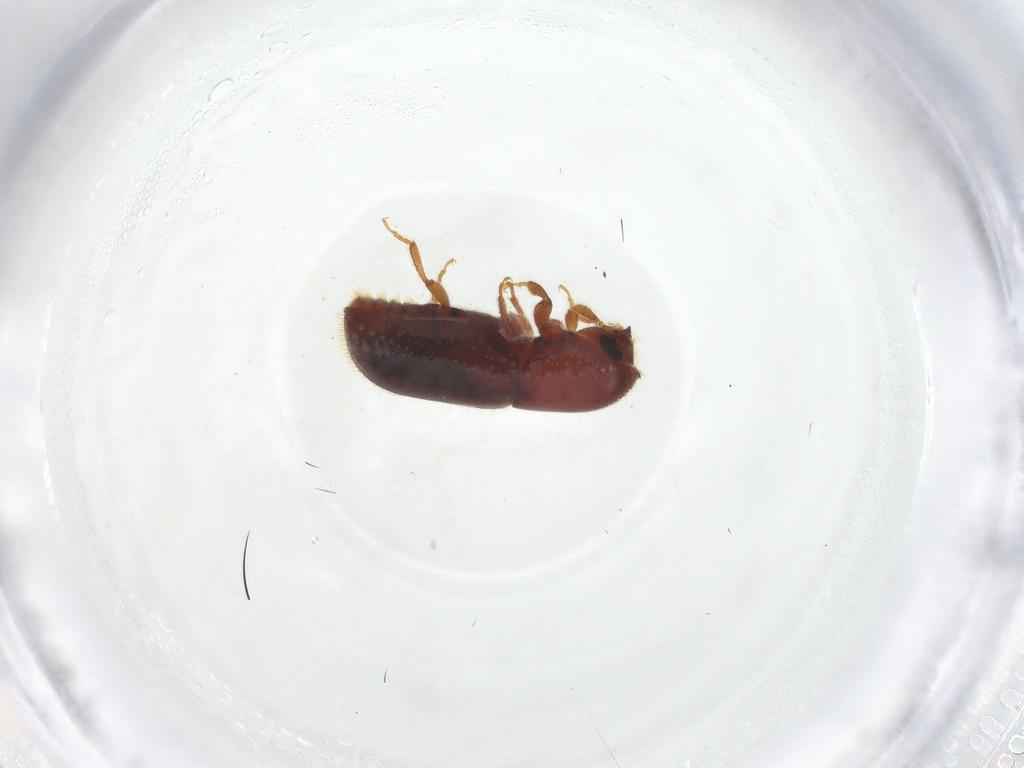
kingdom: Animalia
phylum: Arthropoda
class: Insecta
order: Coleoptera
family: Curculionidae
